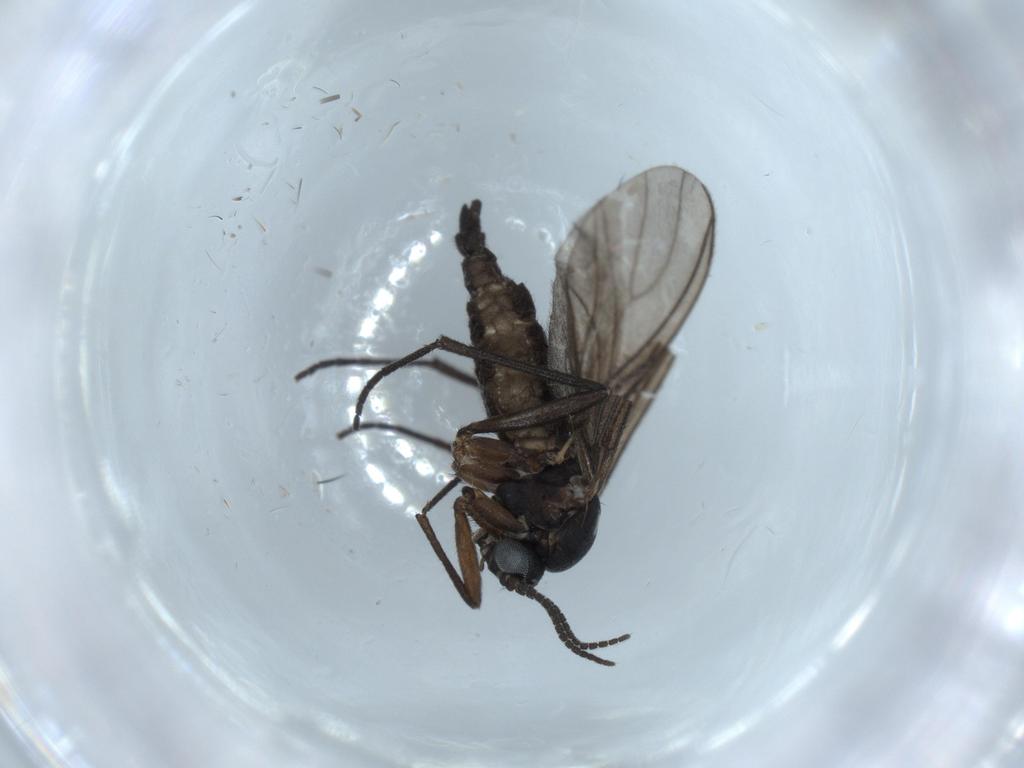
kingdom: Animalia
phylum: Arthropoda
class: Insecta
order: Diptera
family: Sciaridae
